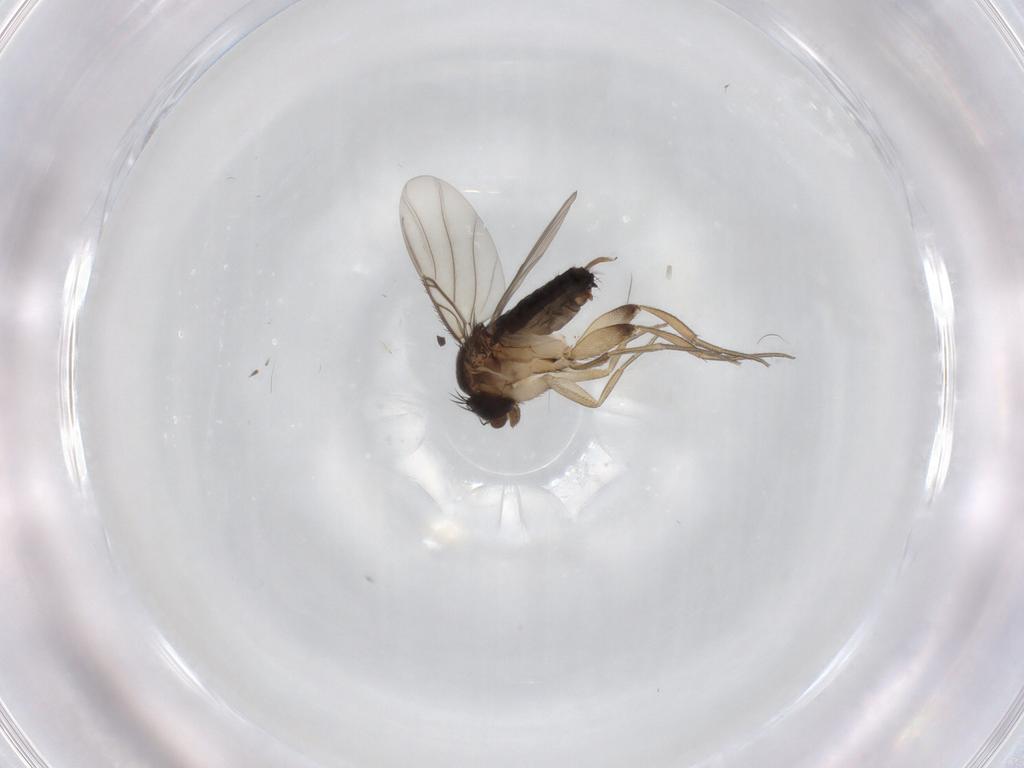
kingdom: Animalia
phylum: Arthropoda
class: Insecta
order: Diptera
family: Phoridae
